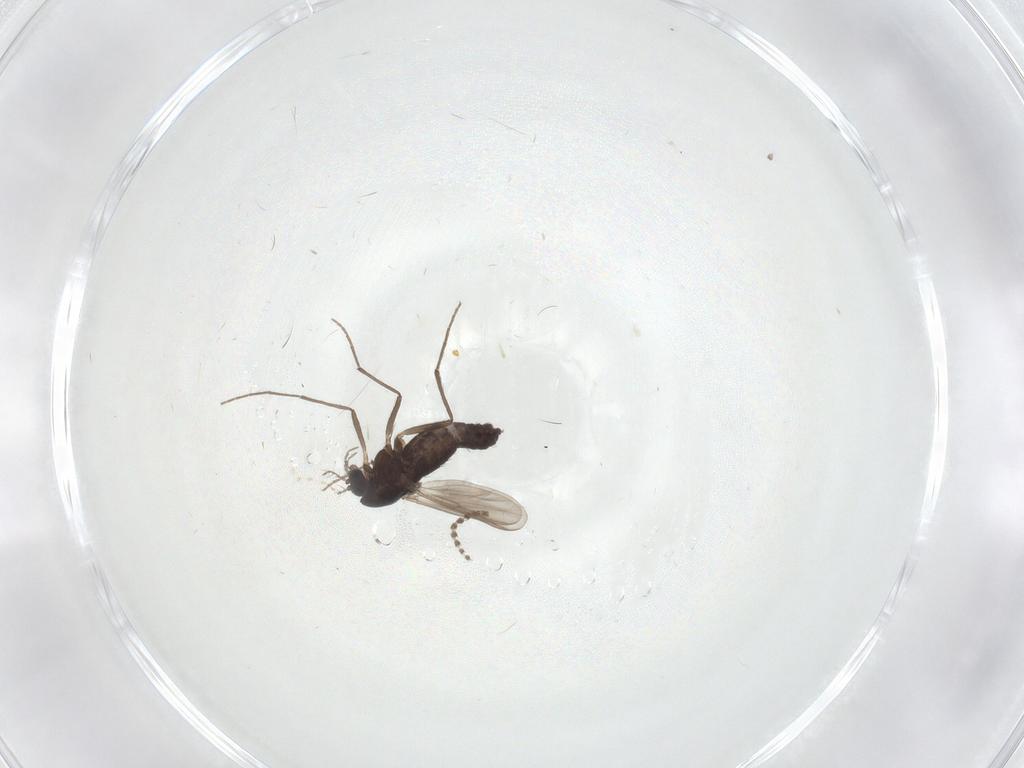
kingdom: Animalia
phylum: Arthropoda
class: Insecta
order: Diptera
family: Chironomidae
